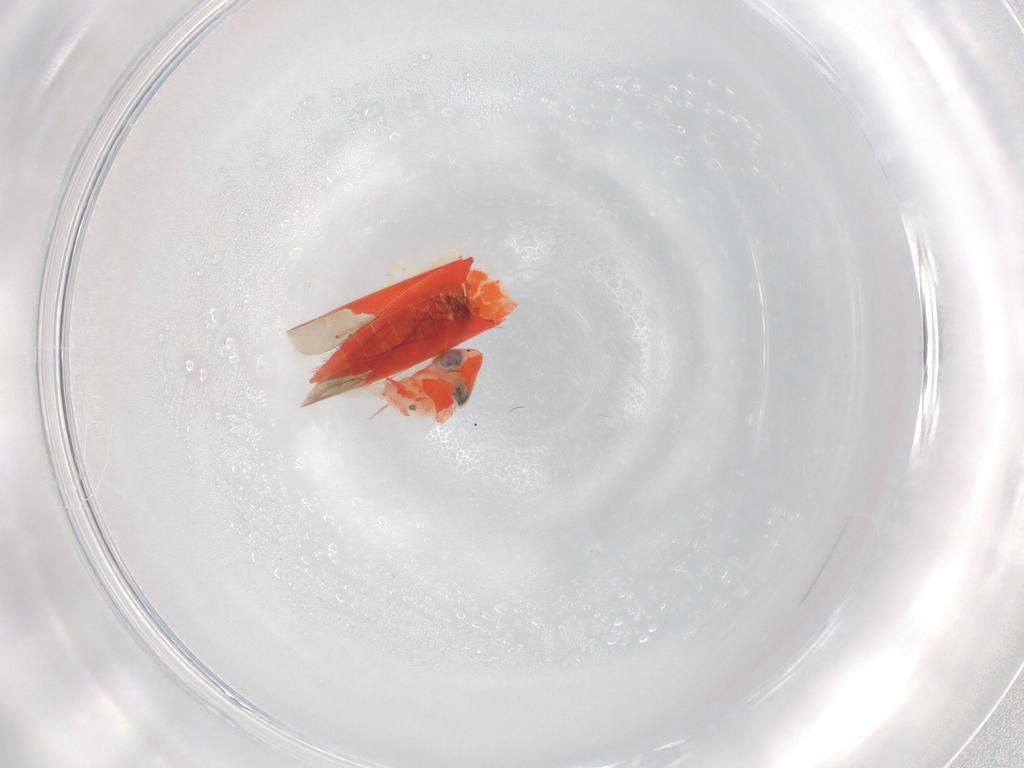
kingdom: Animalia
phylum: Arthropoda
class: Insecta
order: Hemiptera
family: Cicadellidae
